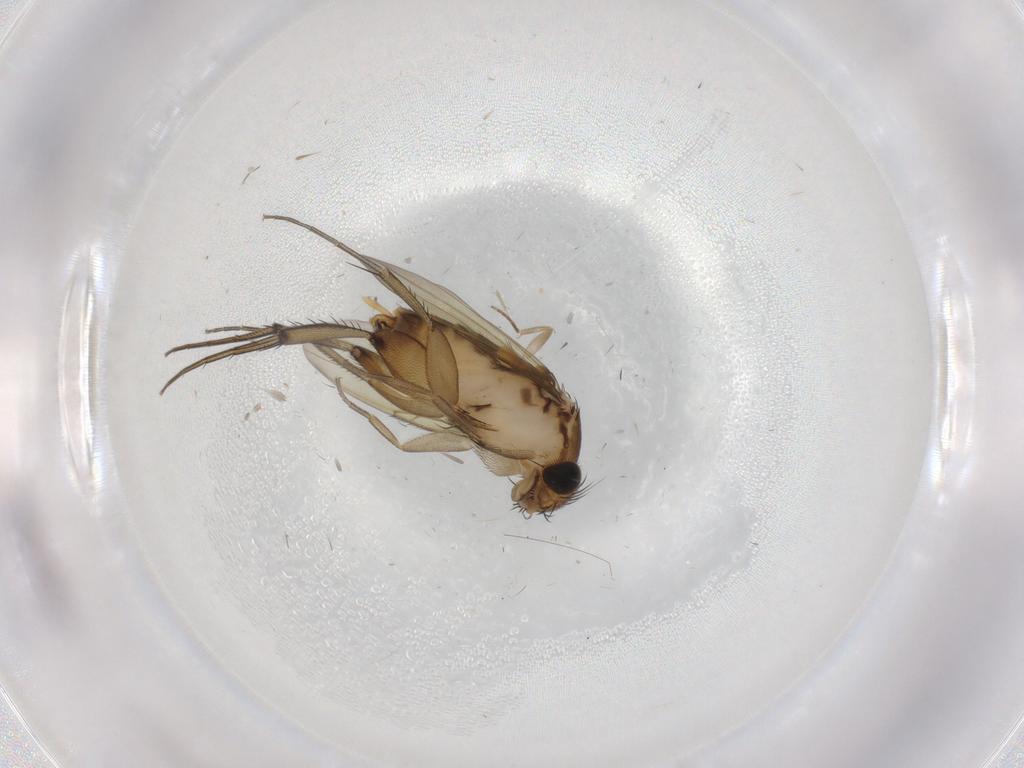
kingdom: Animalia
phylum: Arthropoda
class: Insecta
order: Diptera
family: Phoridae
